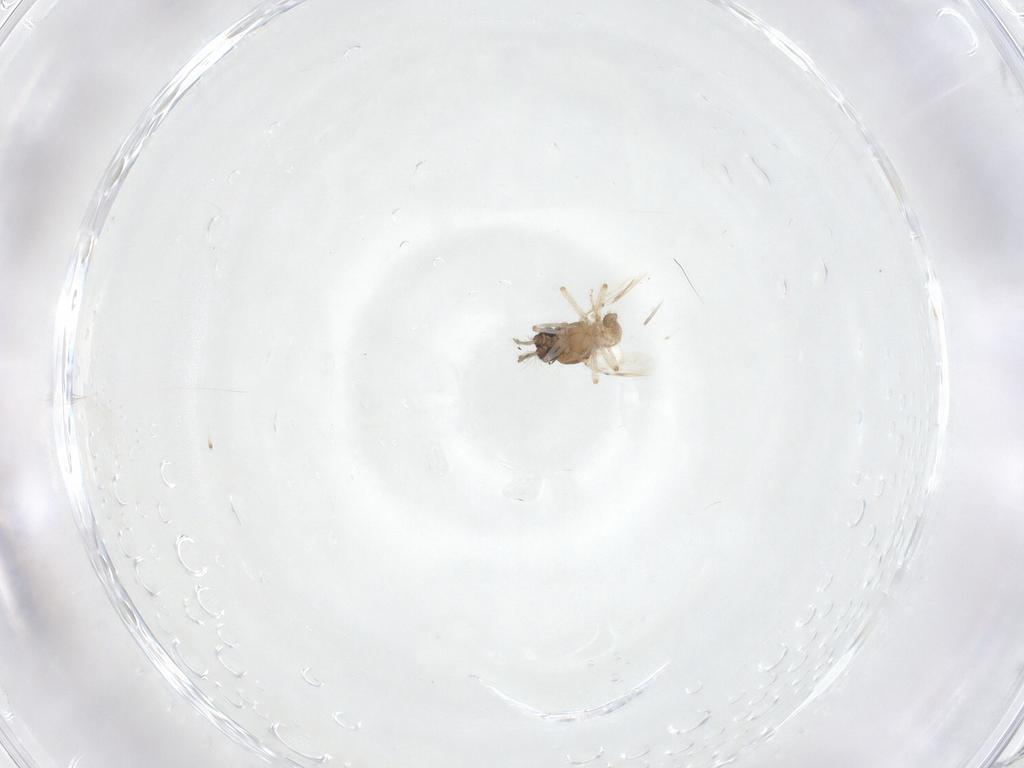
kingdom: Animalia
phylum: Arthropoda
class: Insecta
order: Diptera
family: Ceratopogonidae
